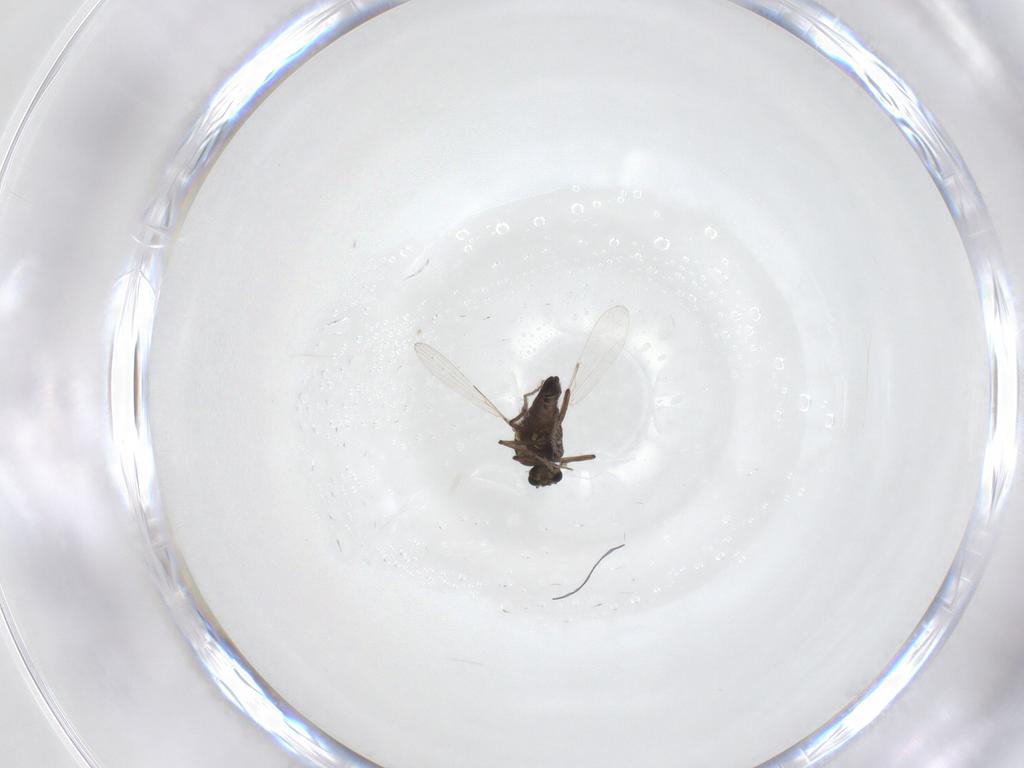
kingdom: Animalia
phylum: Arthropoda
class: Insecta
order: Diptera
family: Ceratopogonidae
